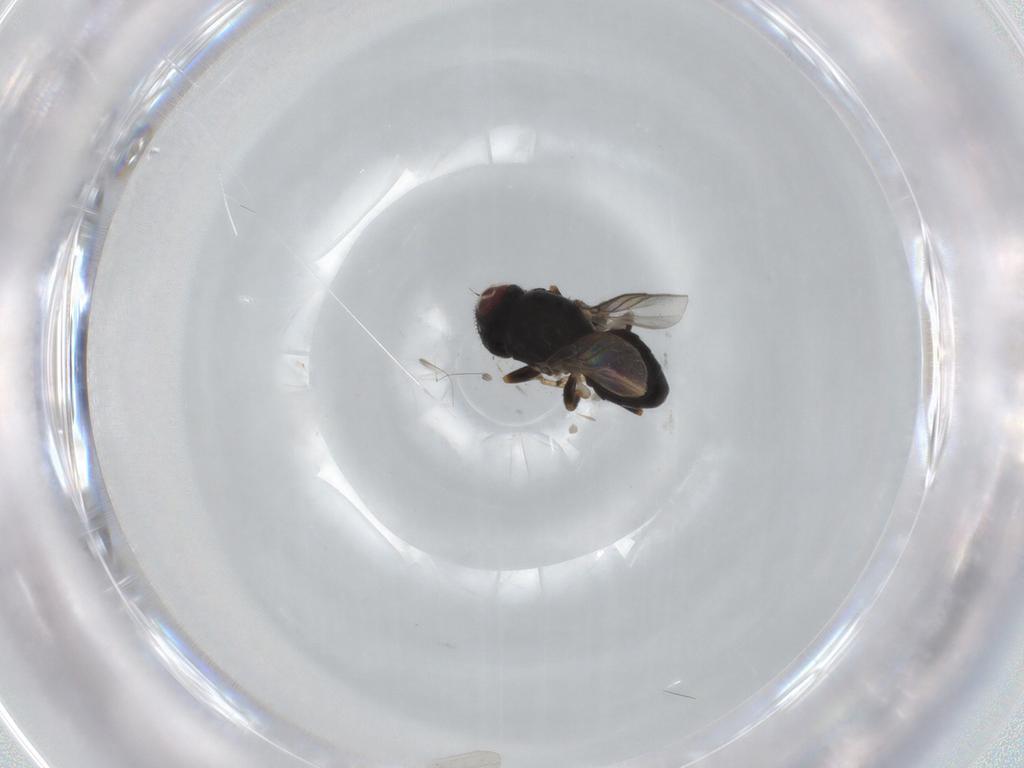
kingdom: Animalia
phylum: Arthropoda
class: Insecta
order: Diptera
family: Chloropidae
